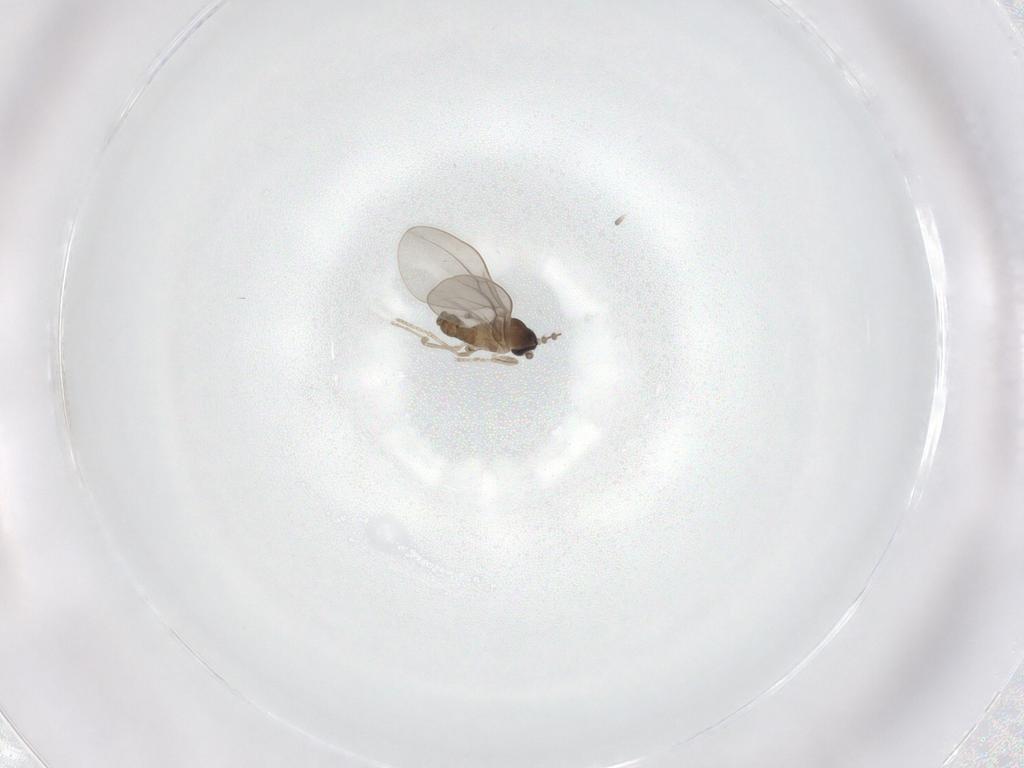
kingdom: Animalia
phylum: Arthropoda
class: Insecta
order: Diptera
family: Cecidomyiidae
